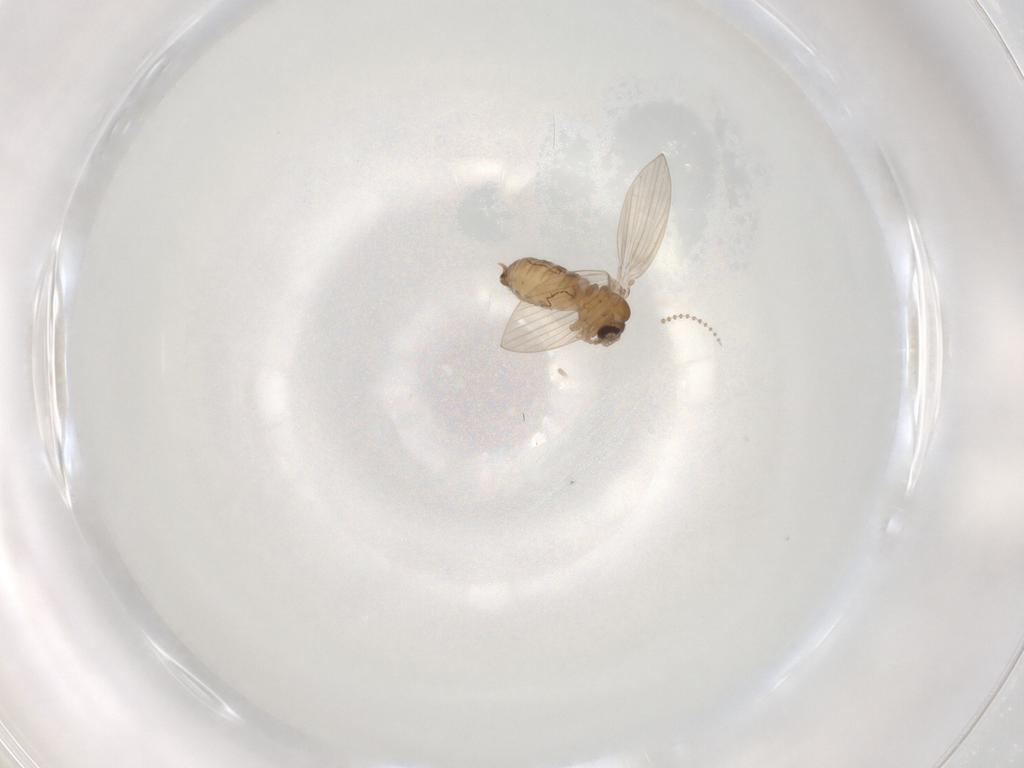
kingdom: Animalia
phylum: Arthropoda
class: Insecta
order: Diptera
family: Psychodidae
